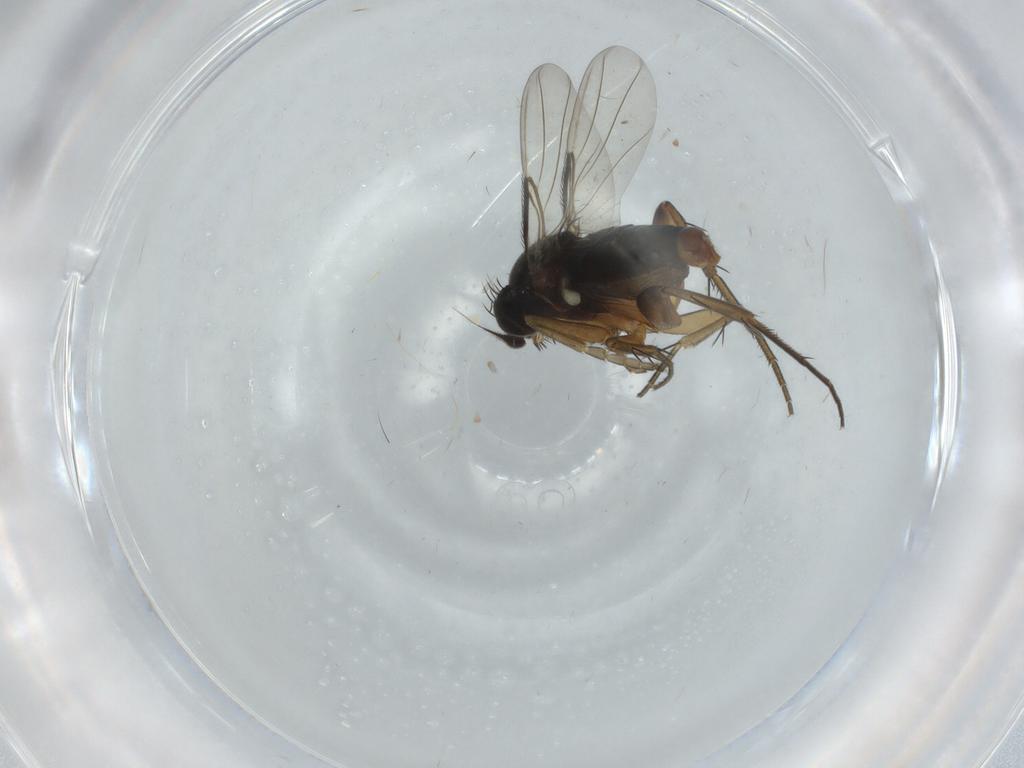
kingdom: Animalia
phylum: Arthropoda
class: Insecta
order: Diptera
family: Phoridae
